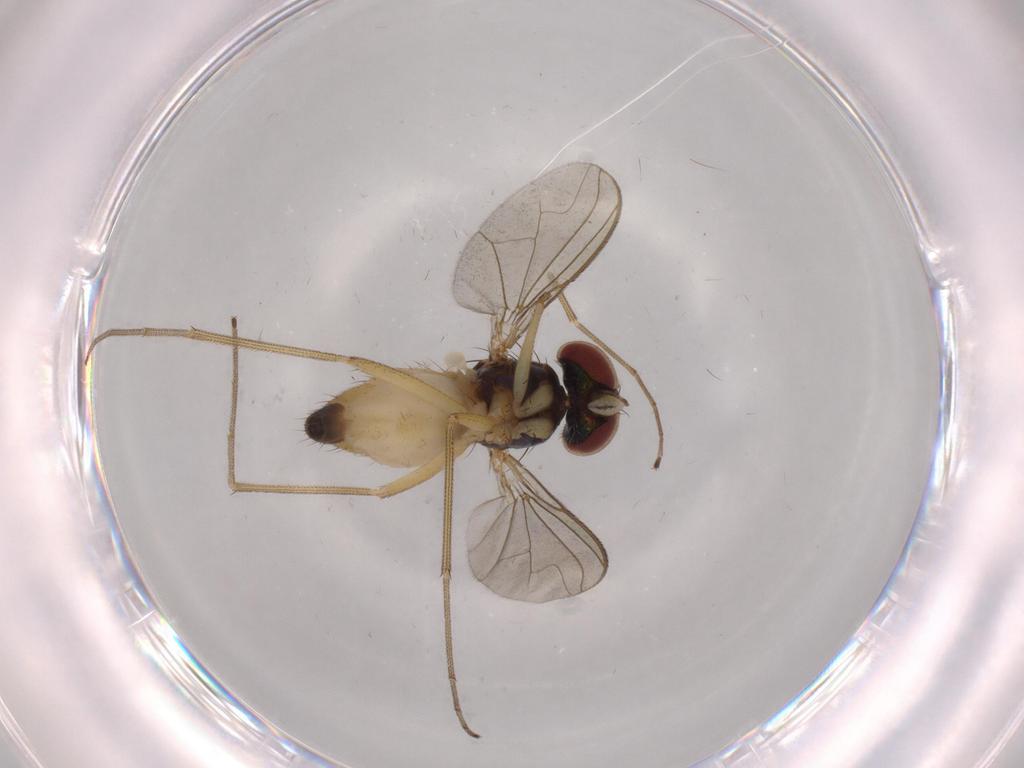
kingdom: Animalia
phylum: Arthropoda
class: Insecta
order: Diptera
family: Dolichopodidae
